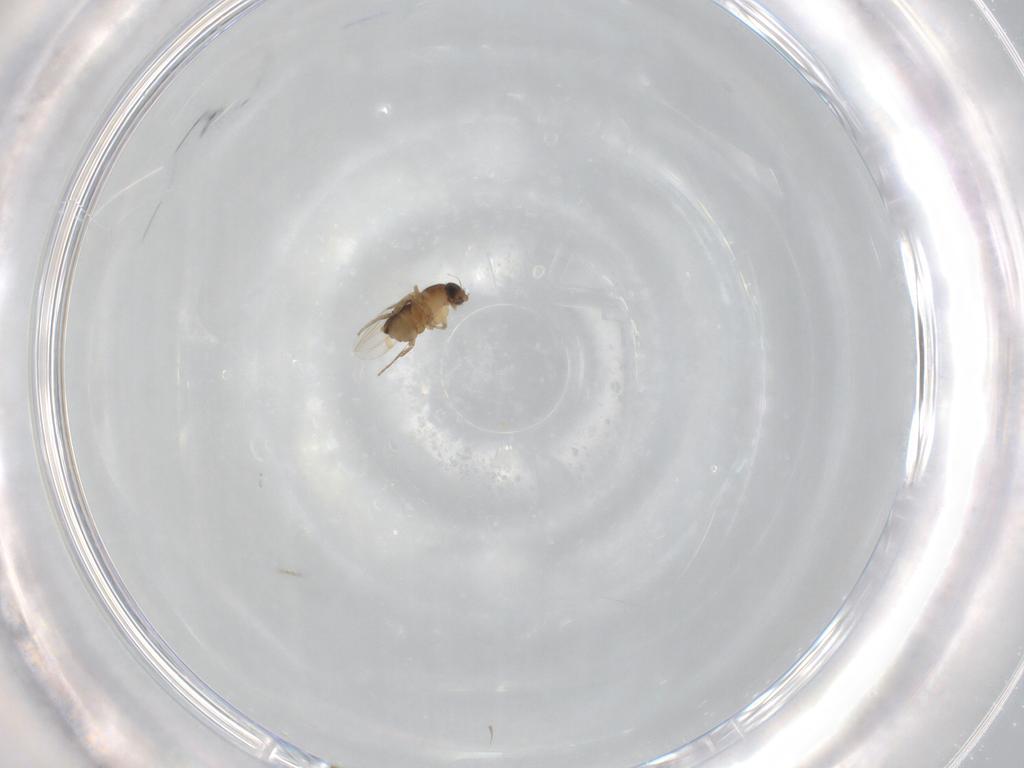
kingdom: Animalia
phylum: Arthropoda
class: Insecta
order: Diptera
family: Chloropidae
